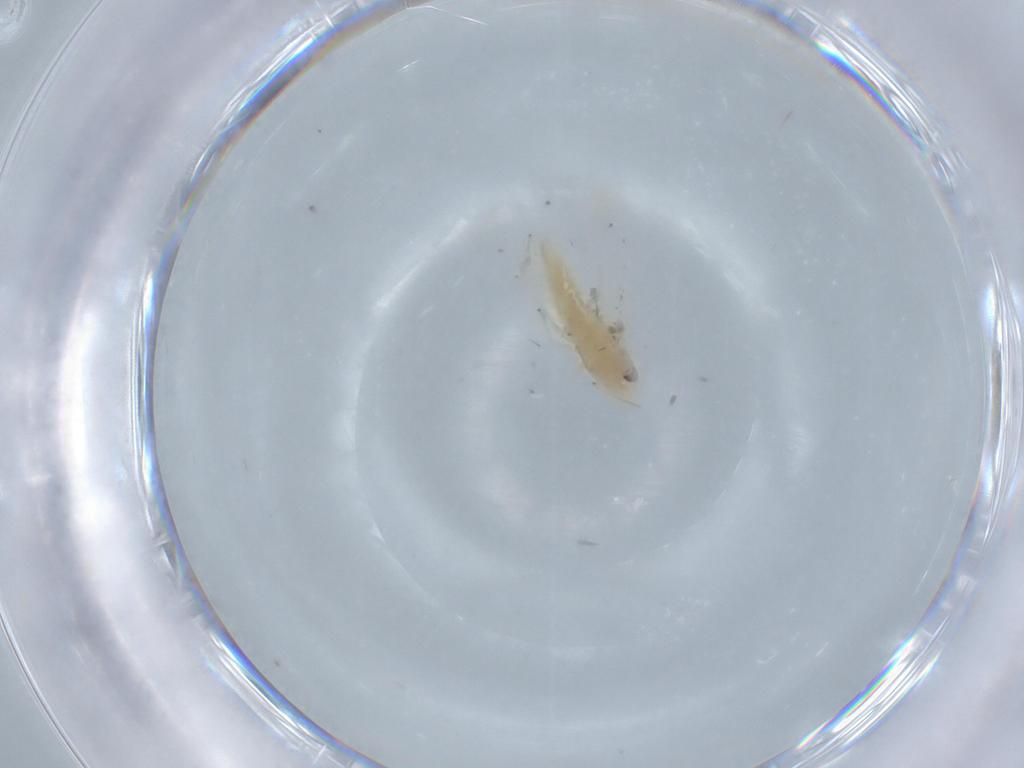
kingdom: Animalia
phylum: Arthropoda
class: Insecta
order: Hemiptera
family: Cicadellidae
